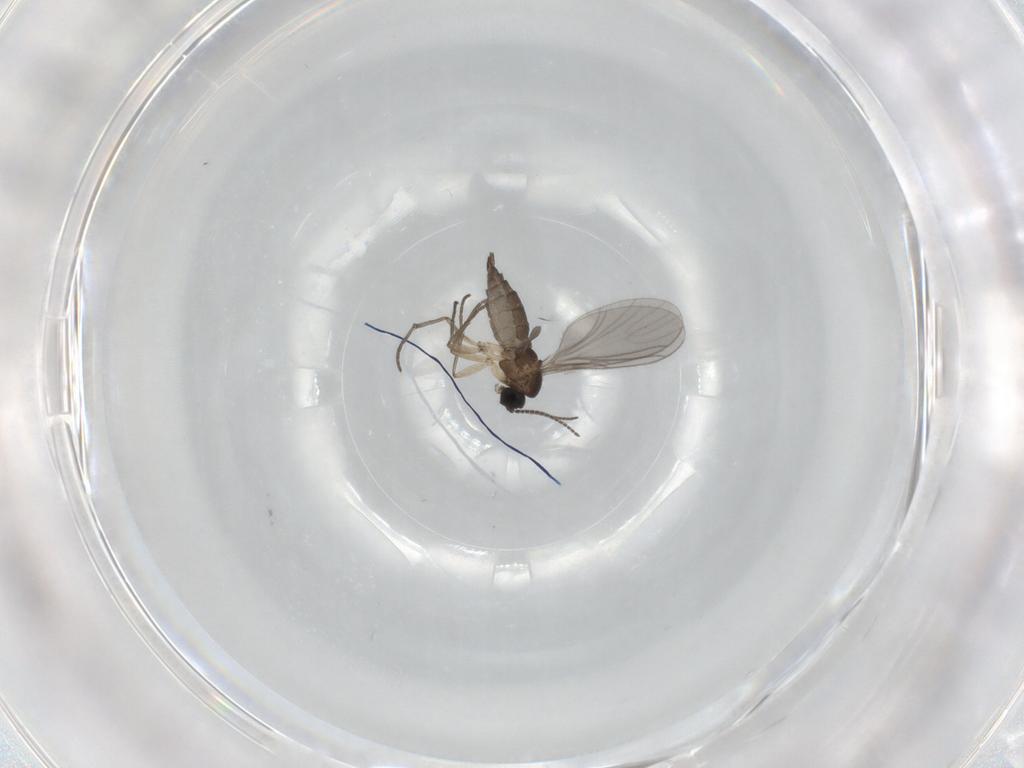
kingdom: Animalia
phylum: Arthropoda
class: Insecta
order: Diptera
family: Sciaridae
